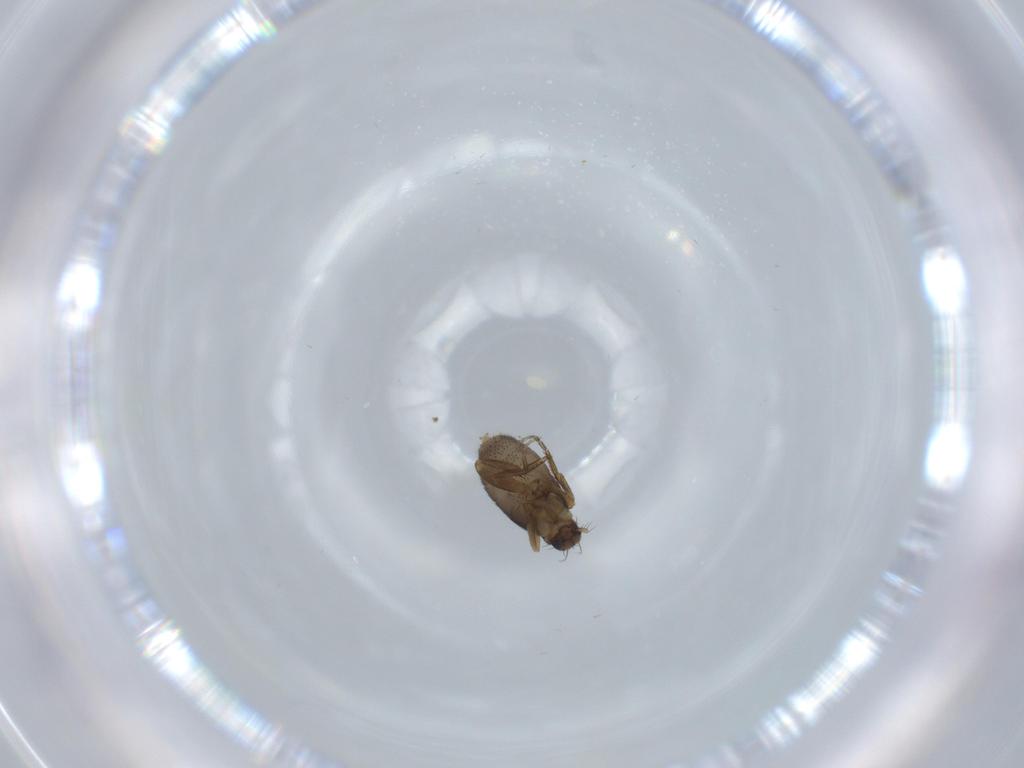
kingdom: Animalia
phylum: Arthropoda
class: Insecta
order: Diptera
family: Phoridae
